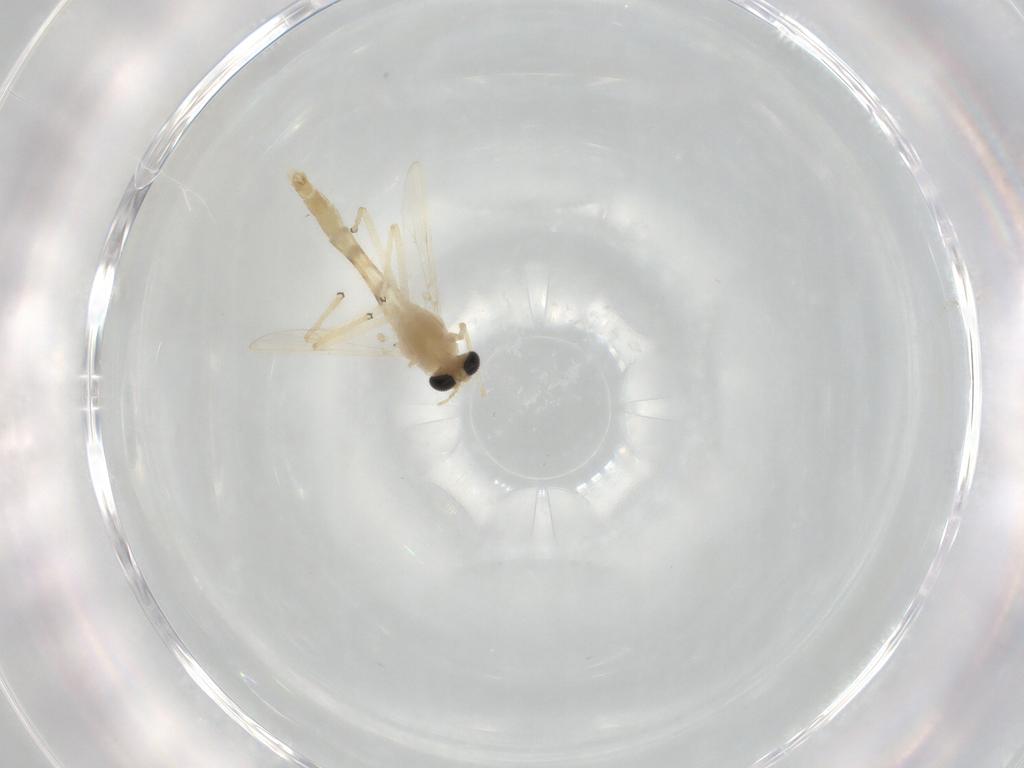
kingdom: Animalia
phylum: Arthropoda
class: Insecta
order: Diptera
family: Chironomidae
